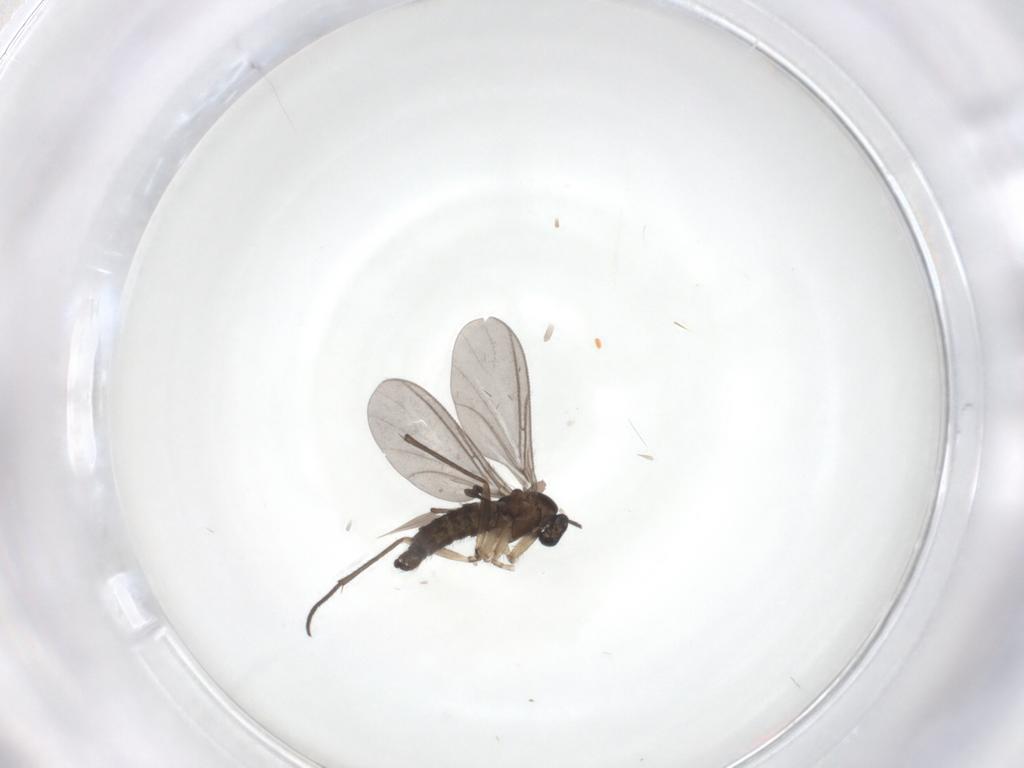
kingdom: Animalia
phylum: Arthropoda
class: Insecta
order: Diptera
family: Sciaridae
